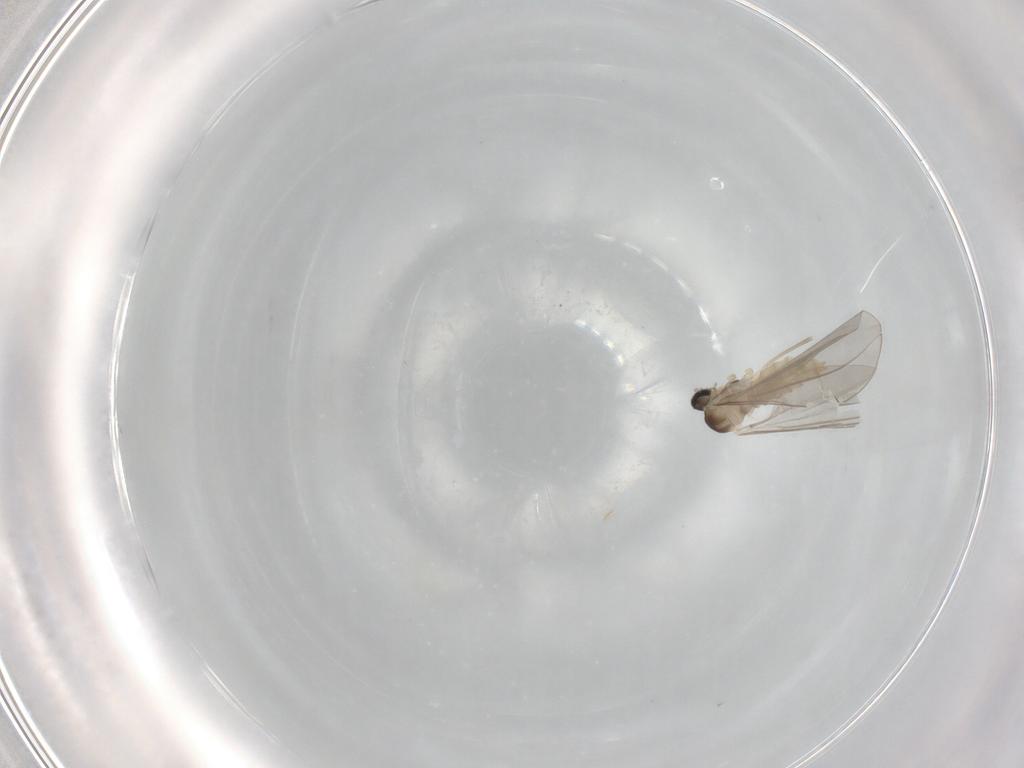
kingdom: Animalia
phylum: Arthropoda
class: Insecta
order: Diptera
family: Cecidomyiidae
